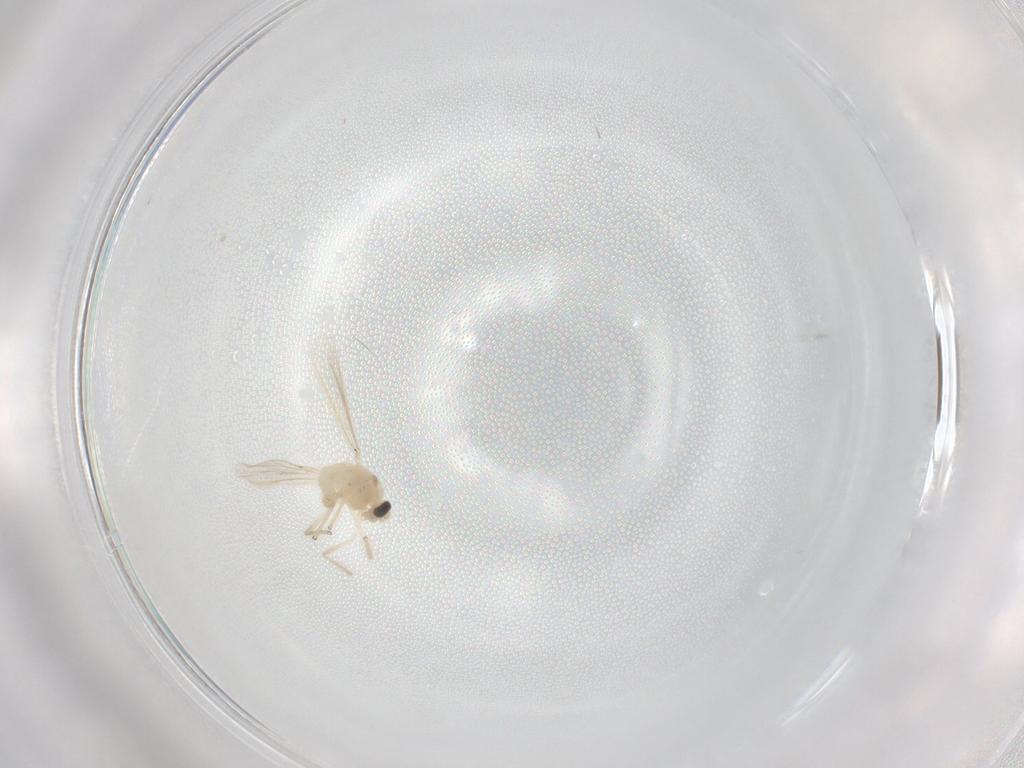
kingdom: Animalia
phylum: Arthropoda
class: Insecta
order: Diptera
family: Chironomidae
